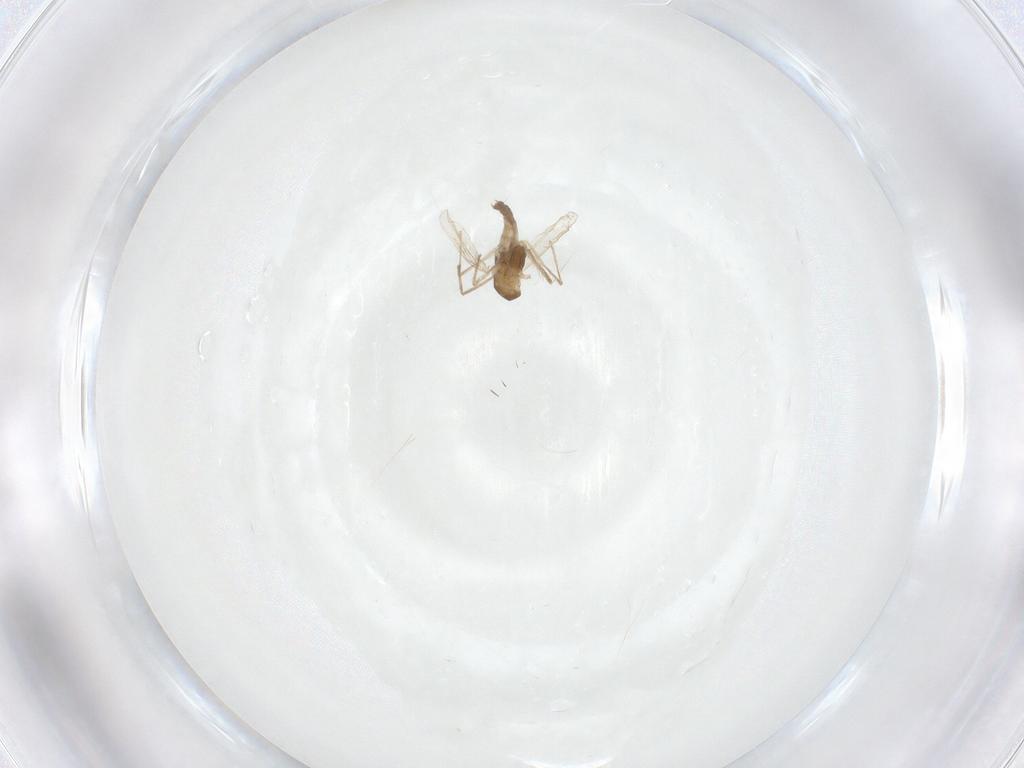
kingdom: Animalia
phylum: Arthropoda
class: Insecta
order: Diptera
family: Chironomidae
